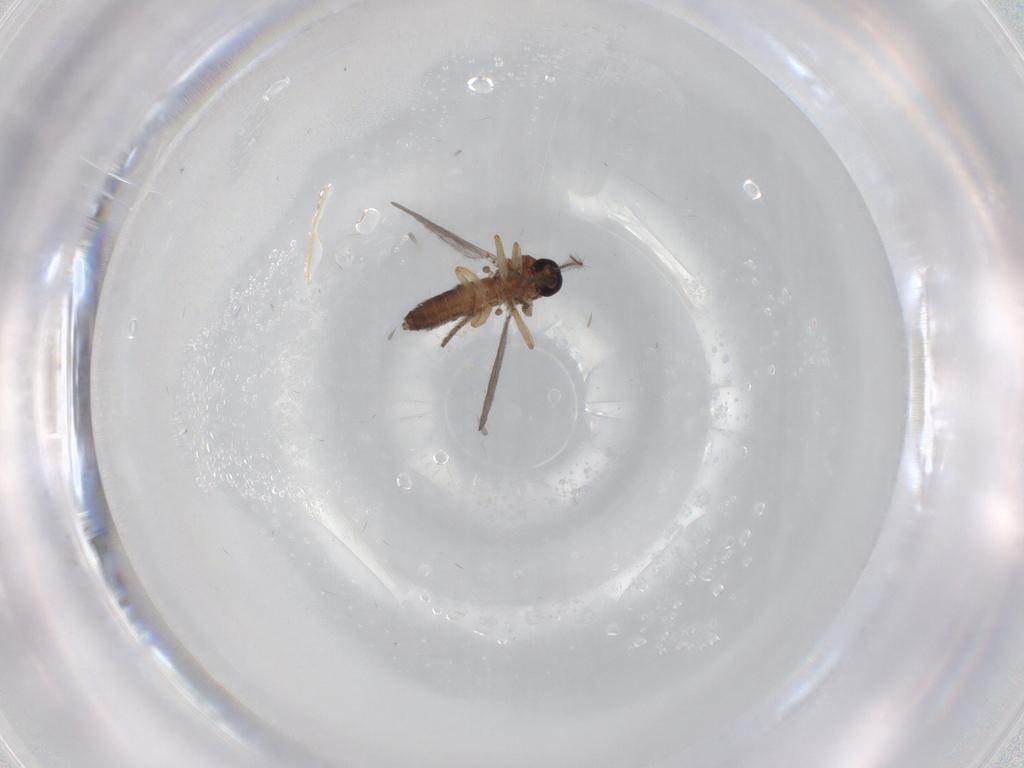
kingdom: Animalia
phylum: Arthropoda
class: Insecta
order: Diptera
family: Ceratopogonidae
